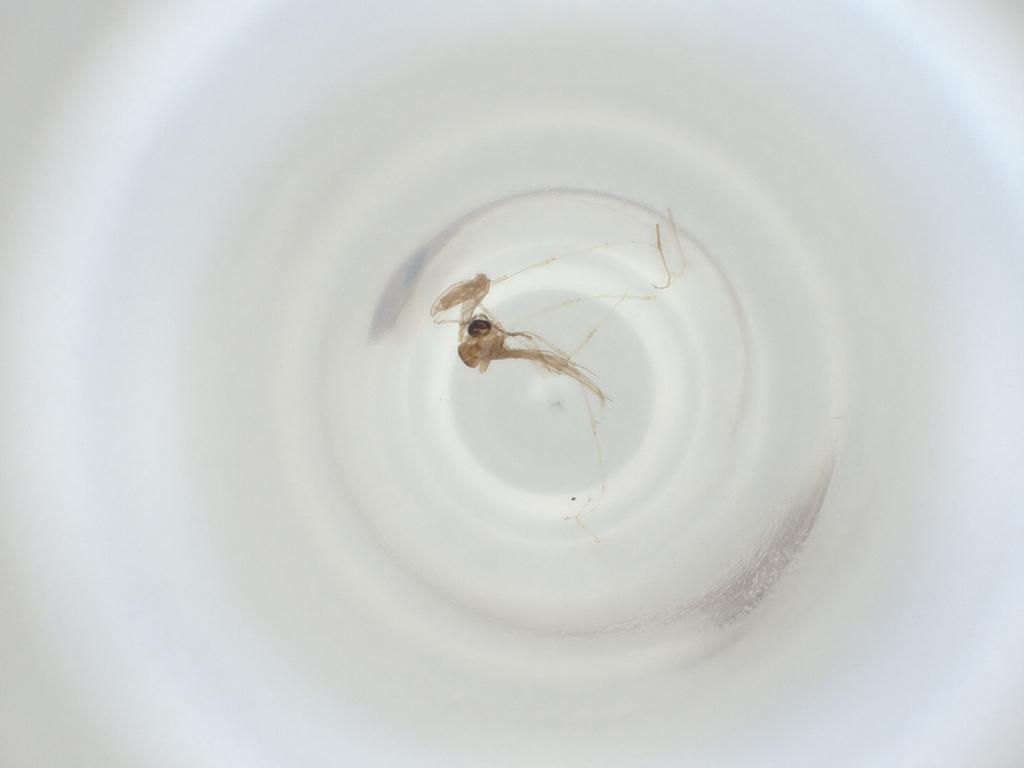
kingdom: Animalia
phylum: Arthropoda
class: Insecta
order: Diptera
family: Cecidomyiidae
